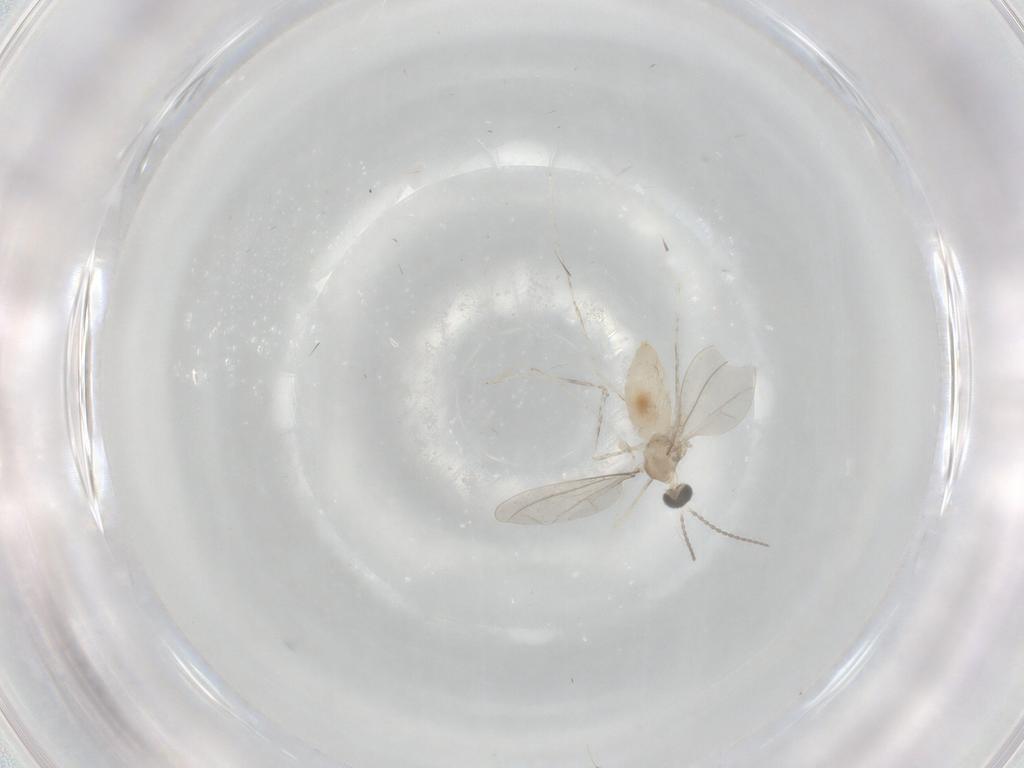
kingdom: Animalia
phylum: Arthropoda
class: Insecta
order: Diptera
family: Cecidomyiidae
